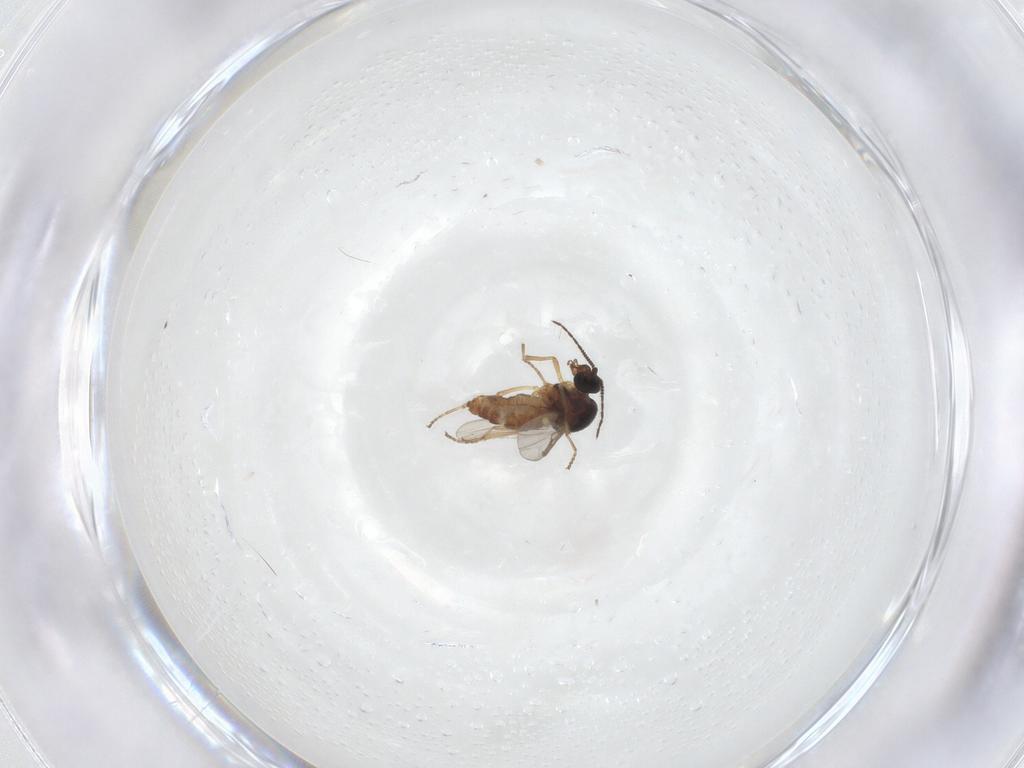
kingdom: Animalia
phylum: Arthropoda
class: Insecta
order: Diptera
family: Ceratopogonidae
